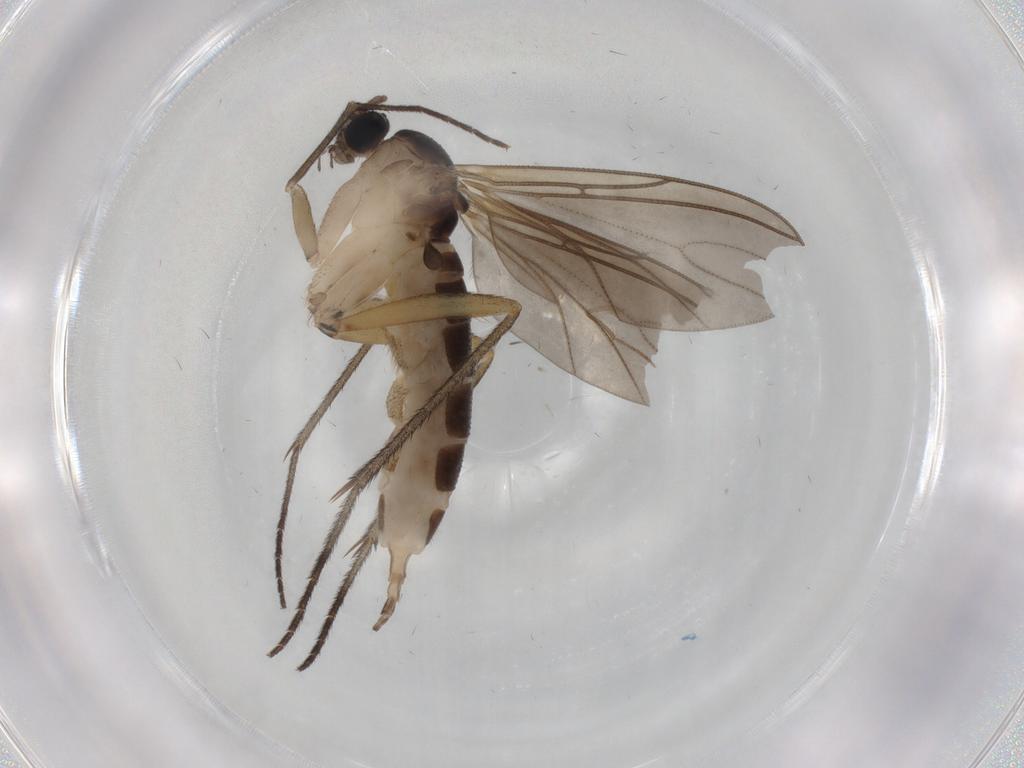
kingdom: Animalia
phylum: Arthropoda
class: Insecta
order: Diptera
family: Sciaridae
